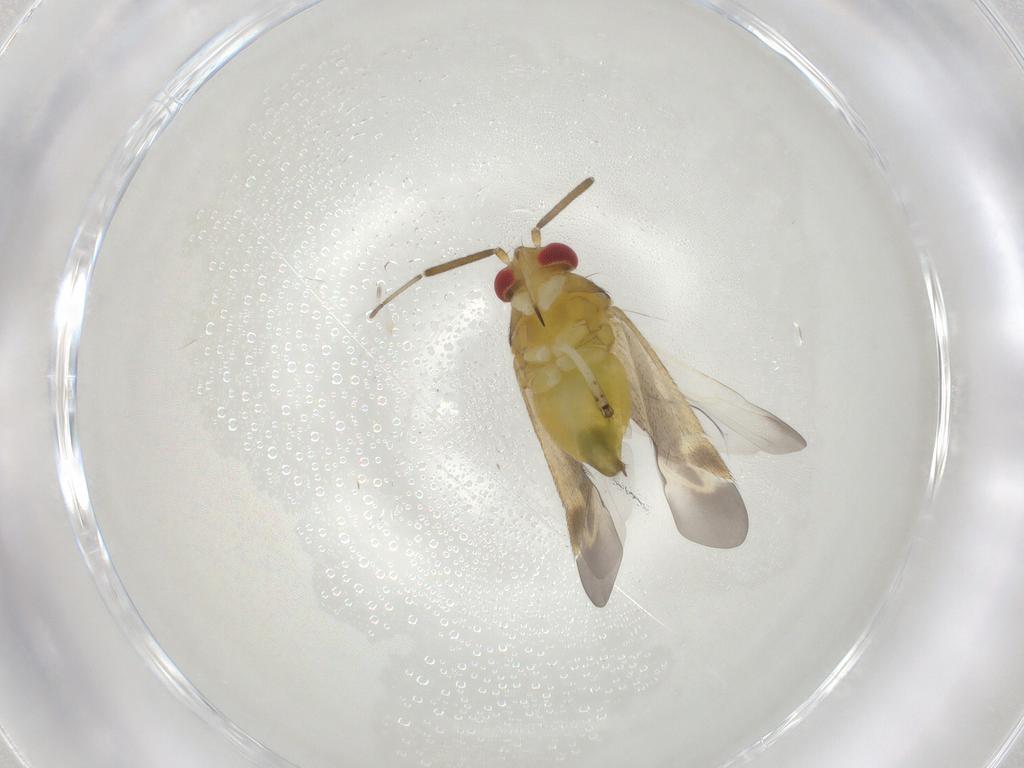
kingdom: Animalia
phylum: Arthropoda
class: Insecta
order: Hemiptera
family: Miridae
